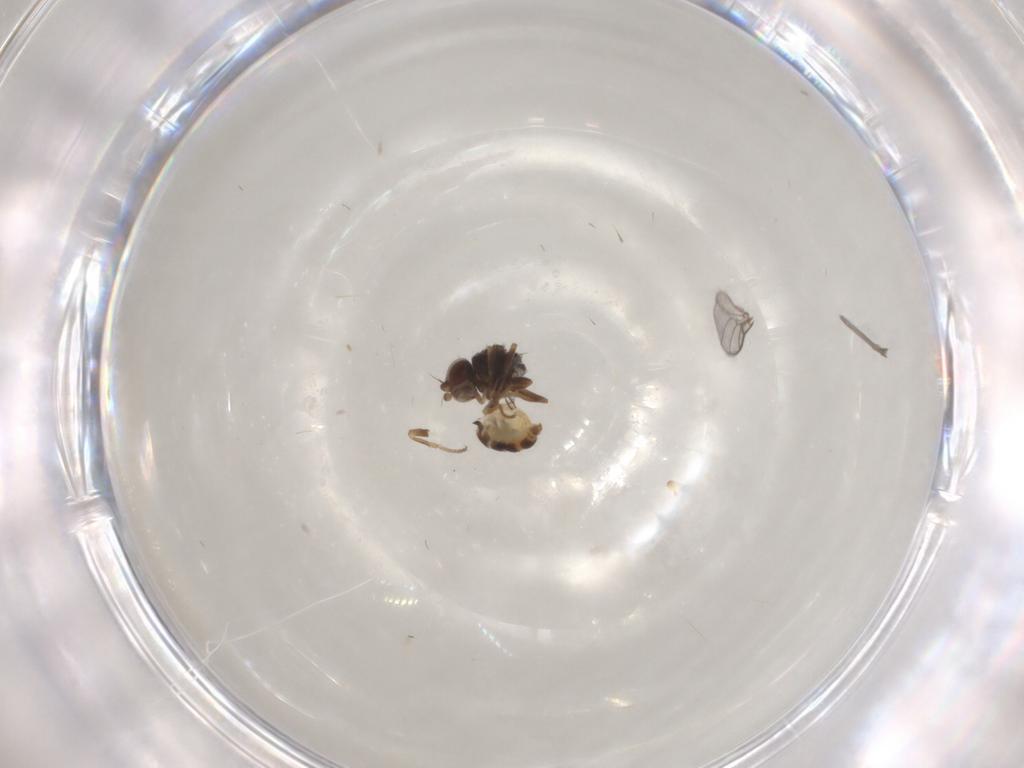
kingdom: Animalia
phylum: Arthropoda
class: Insecta
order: Diptera
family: Chloropidae
